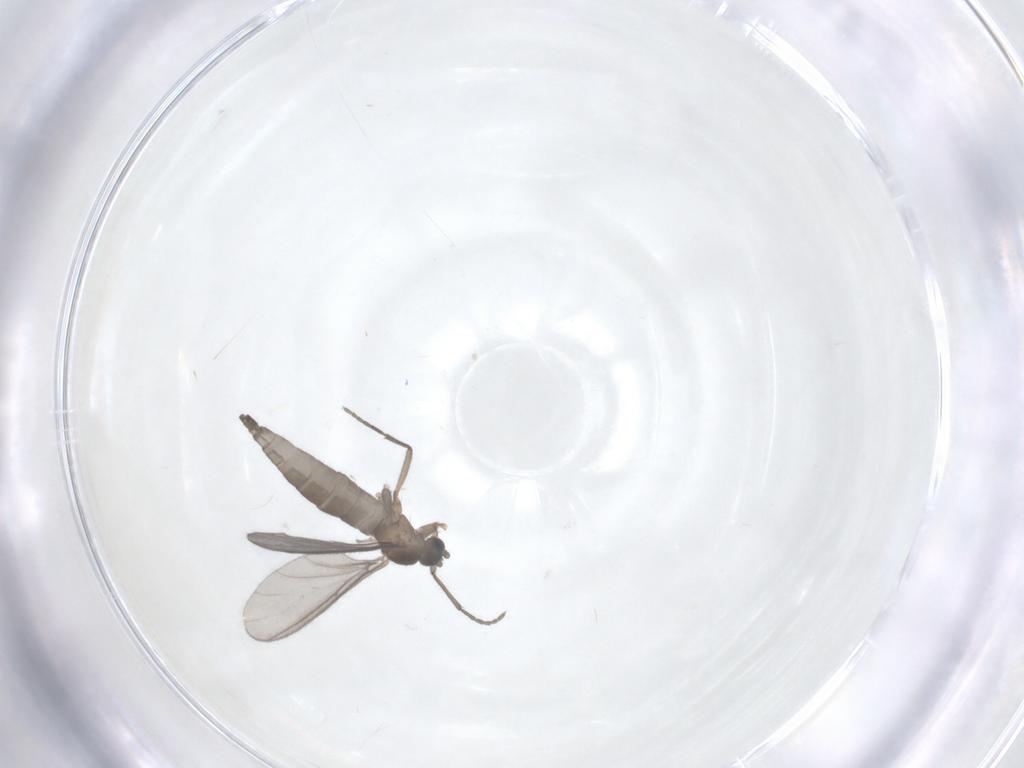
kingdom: Animalia
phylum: Arthropoda
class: Insecta
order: Diptera
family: Sciaridae
